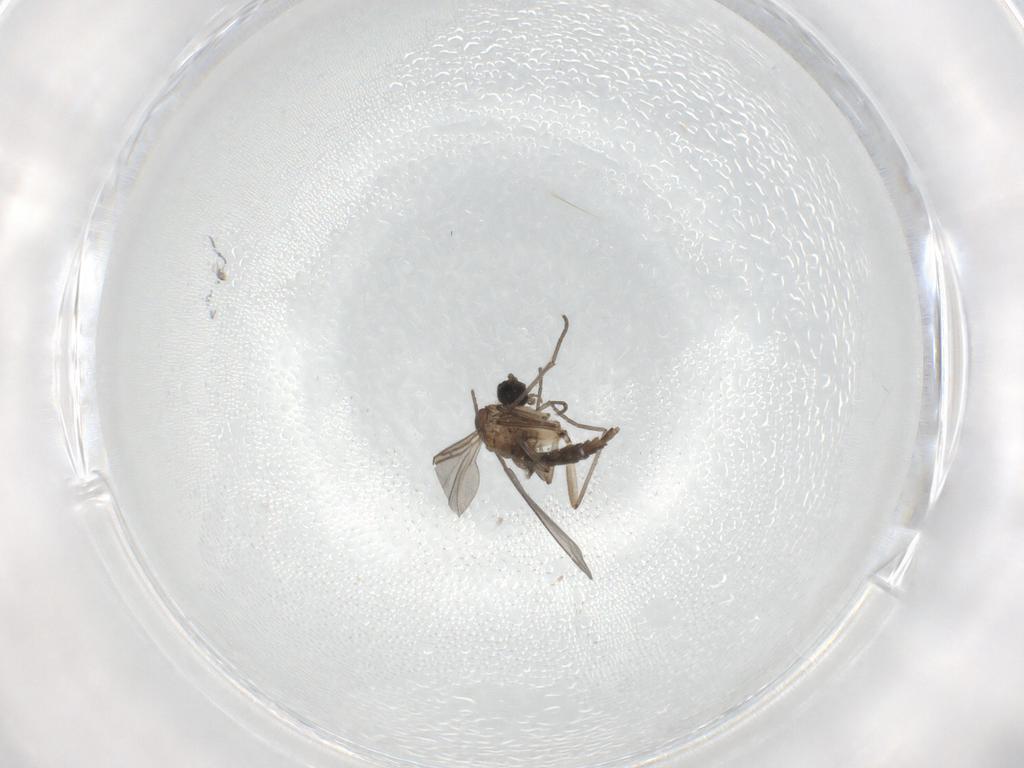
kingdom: Animalia
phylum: Arthropoda
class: Insecta
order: Diptera
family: Sciaridae
